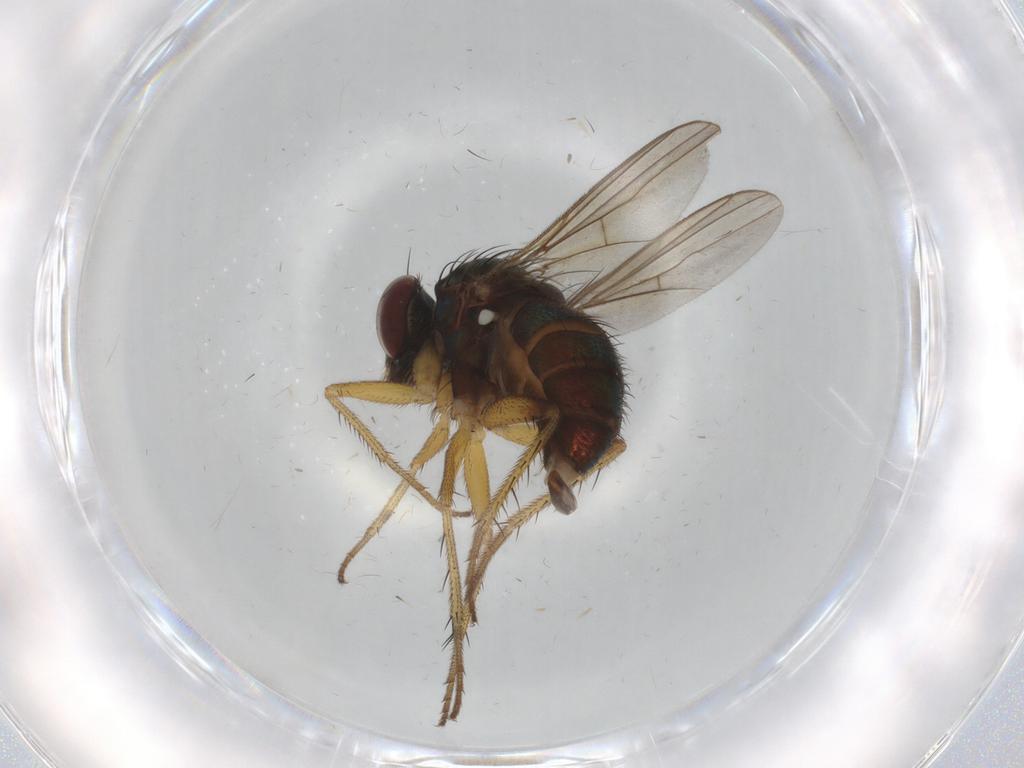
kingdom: Animalia
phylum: Arthropoda
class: Insecta
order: Diptera
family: Dolichopodidae
